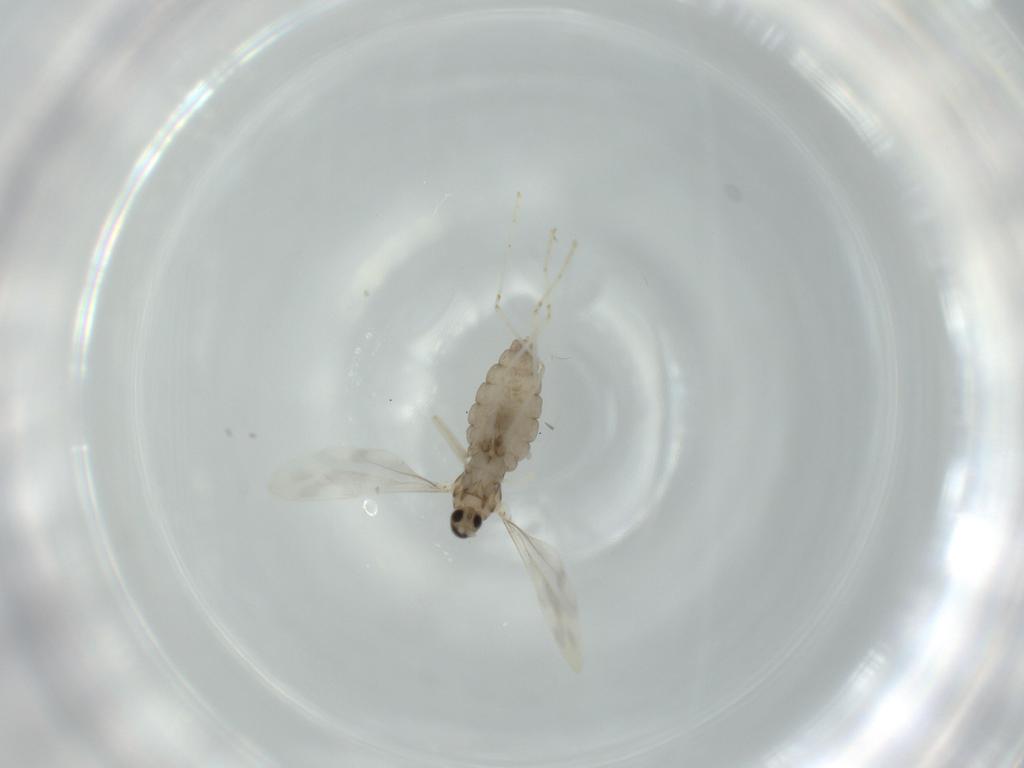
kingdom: Animalia
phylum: Arthropoda
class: Insecta
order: Diptera
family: Cecidomyiidae
